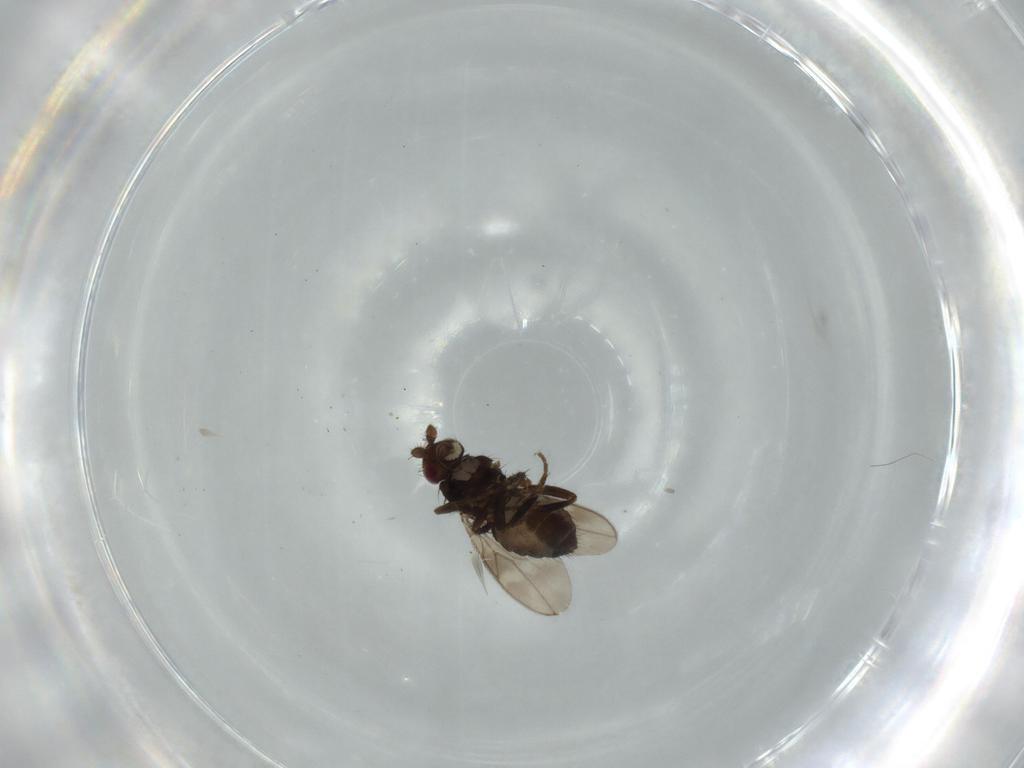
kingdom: Animalia
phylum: Arthropoda
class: Insecta
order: Diptera
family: Sphaeroceridae
